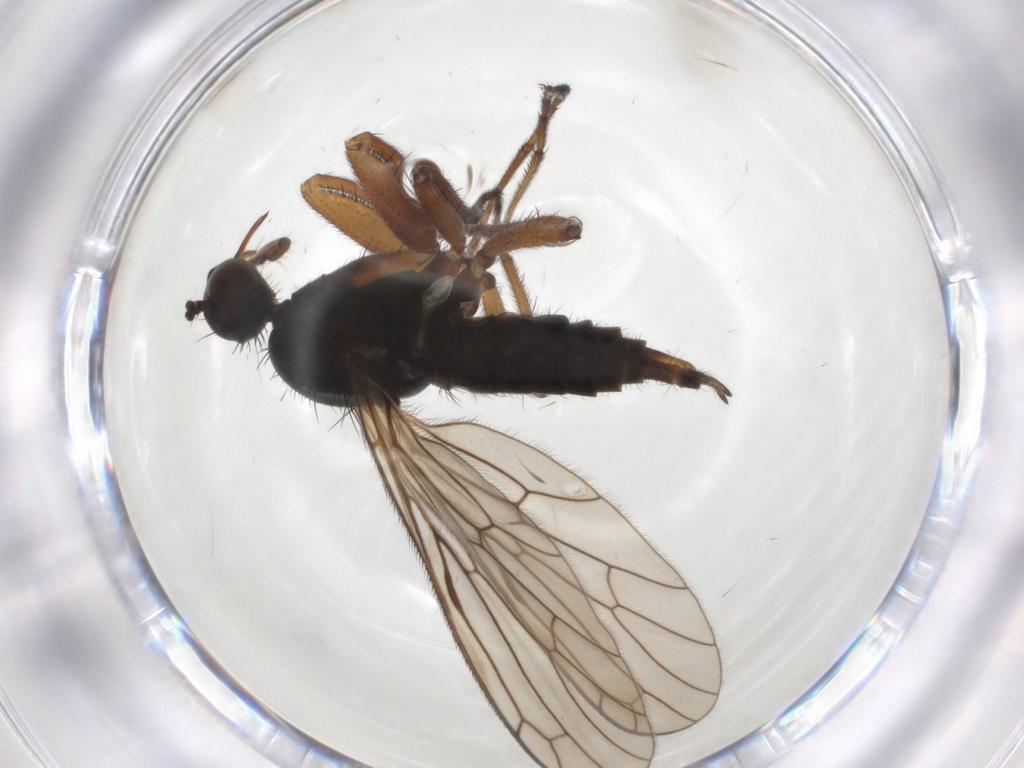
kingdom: Animalia
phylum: Arthropoda
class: Insecta
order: Diptera
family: Empididae
